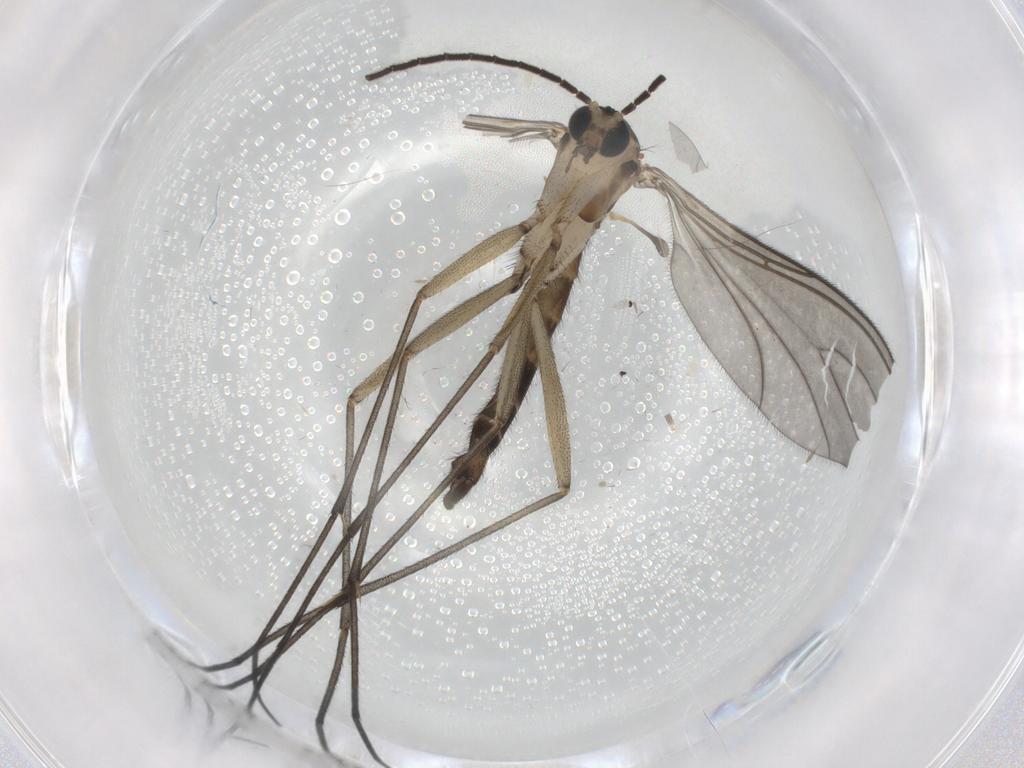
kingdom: Animalia
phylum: Arthropoda
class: Insecta
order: Diptera
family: Sciaridae
